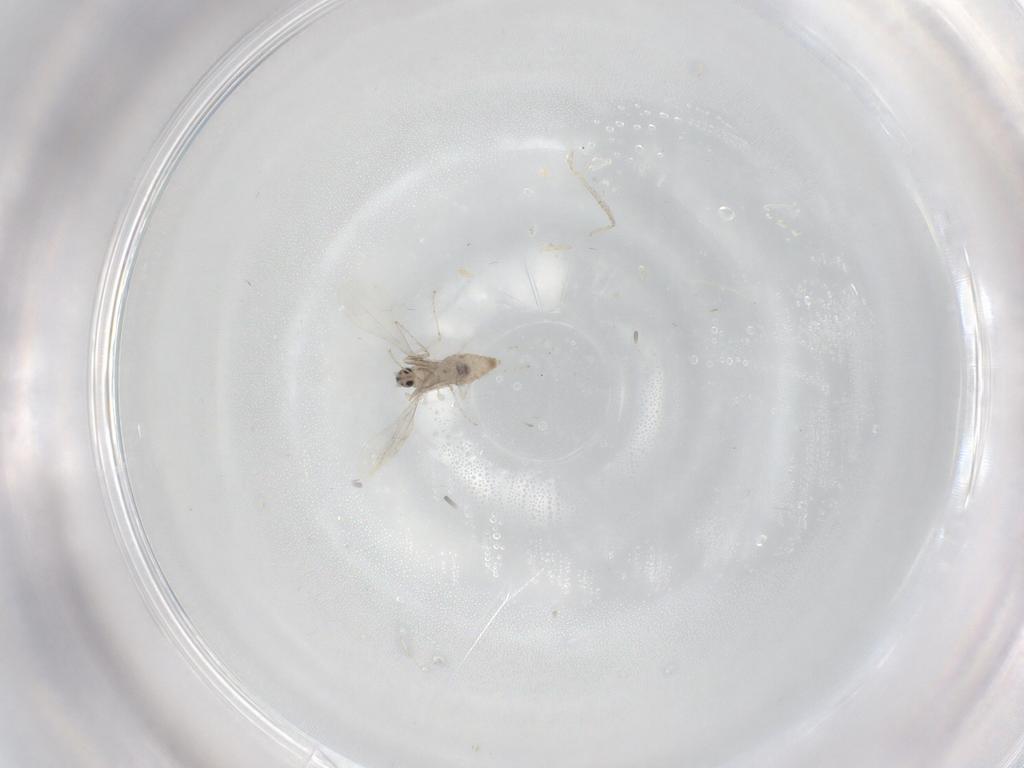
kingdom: Animalia
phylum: Arthropoda
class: Insecta
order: Diptera
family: Cecidomyiidae
